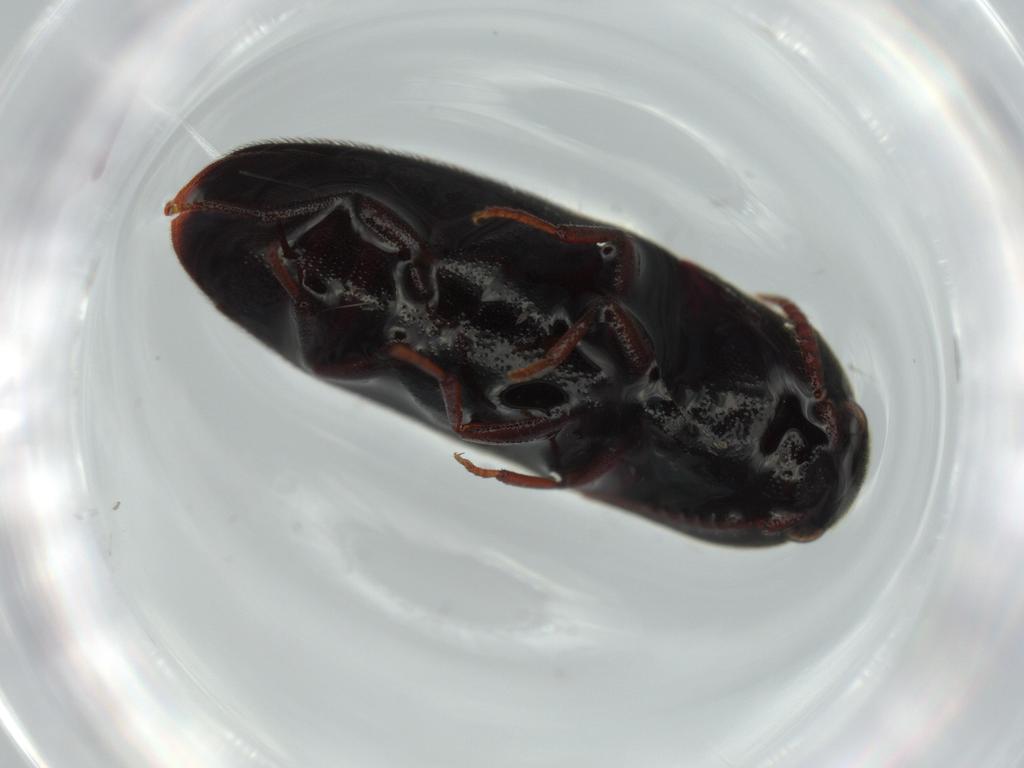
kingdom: Animalia
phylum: Arthropoda
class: Insecta
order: Coleoptera
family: Eucnemidae
